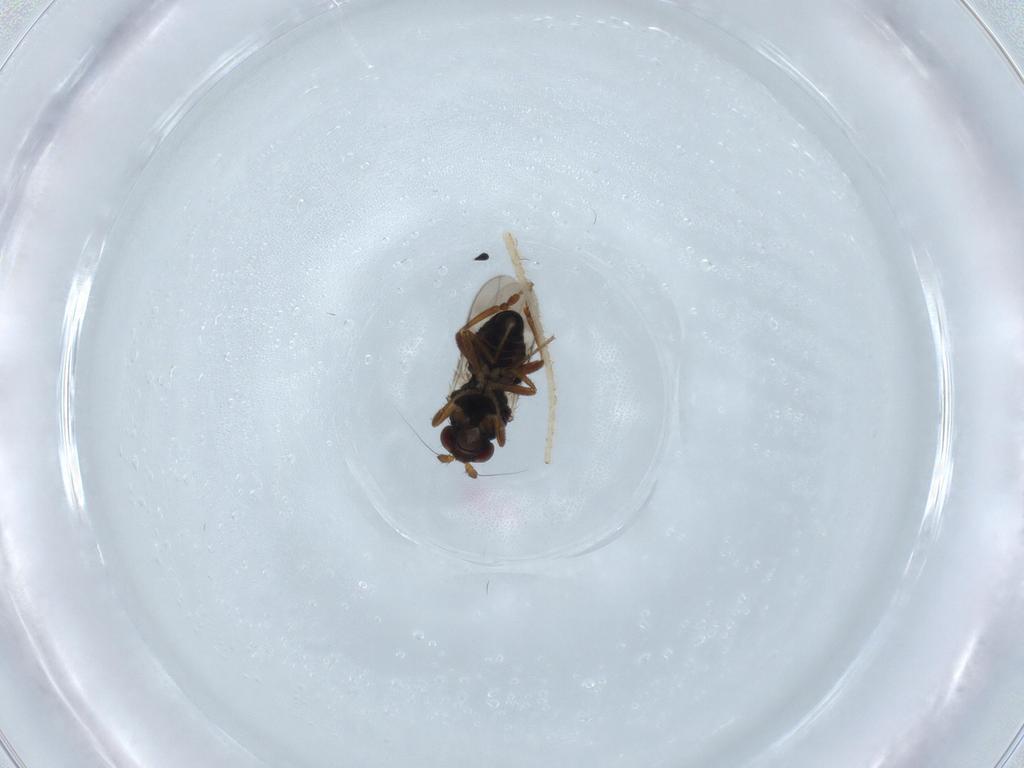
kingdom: Animalia
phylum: Arthropoda
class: Insecta
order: Diptera
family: Sphaeroceridae
